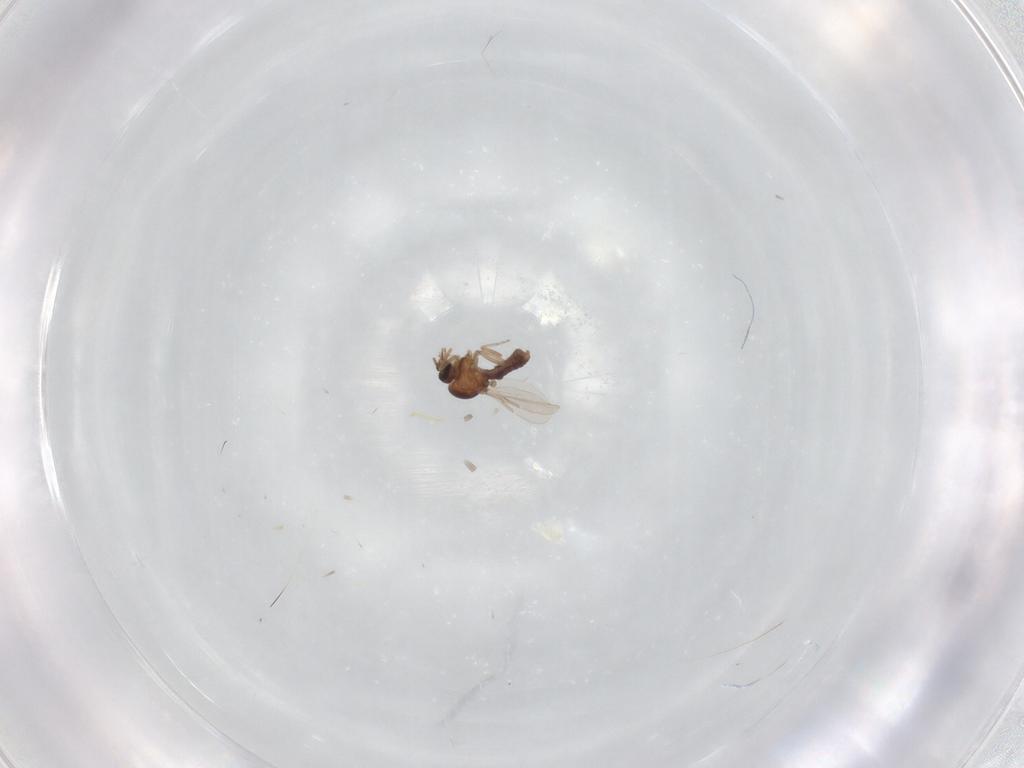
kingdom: Animalia
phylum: Arthropoda
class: Insecta
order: Diptera
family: Ceratopogonidae
